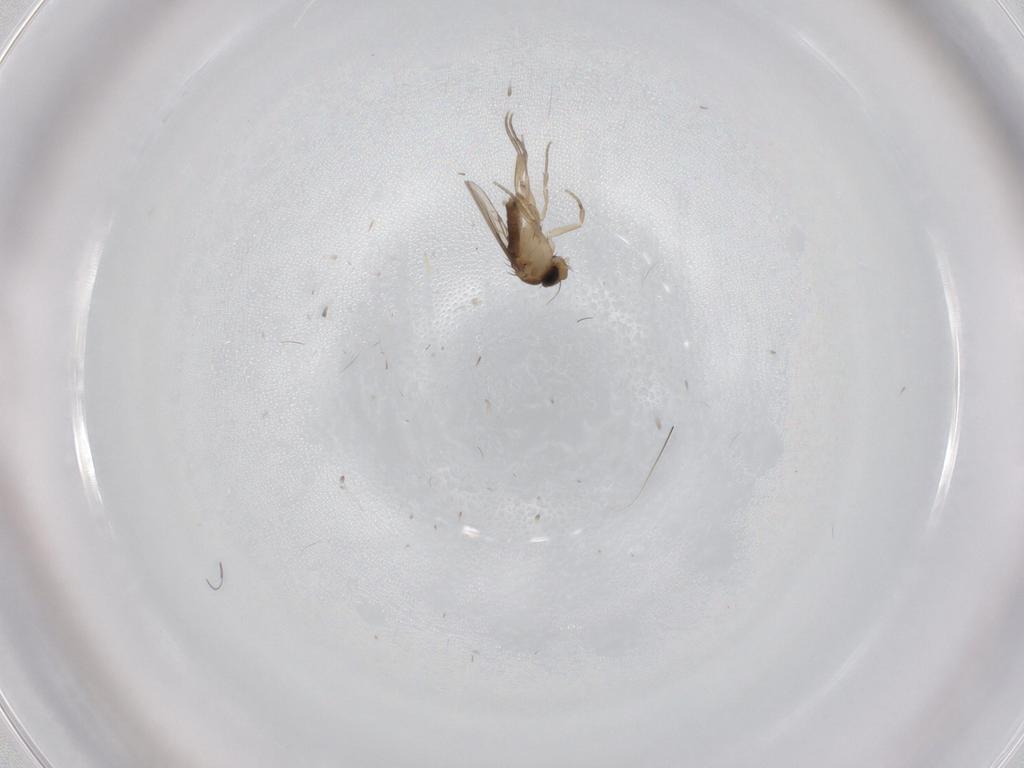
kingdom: Animalia
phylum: Arthropoda
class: Insecta
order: Diptera
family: Phoridae
